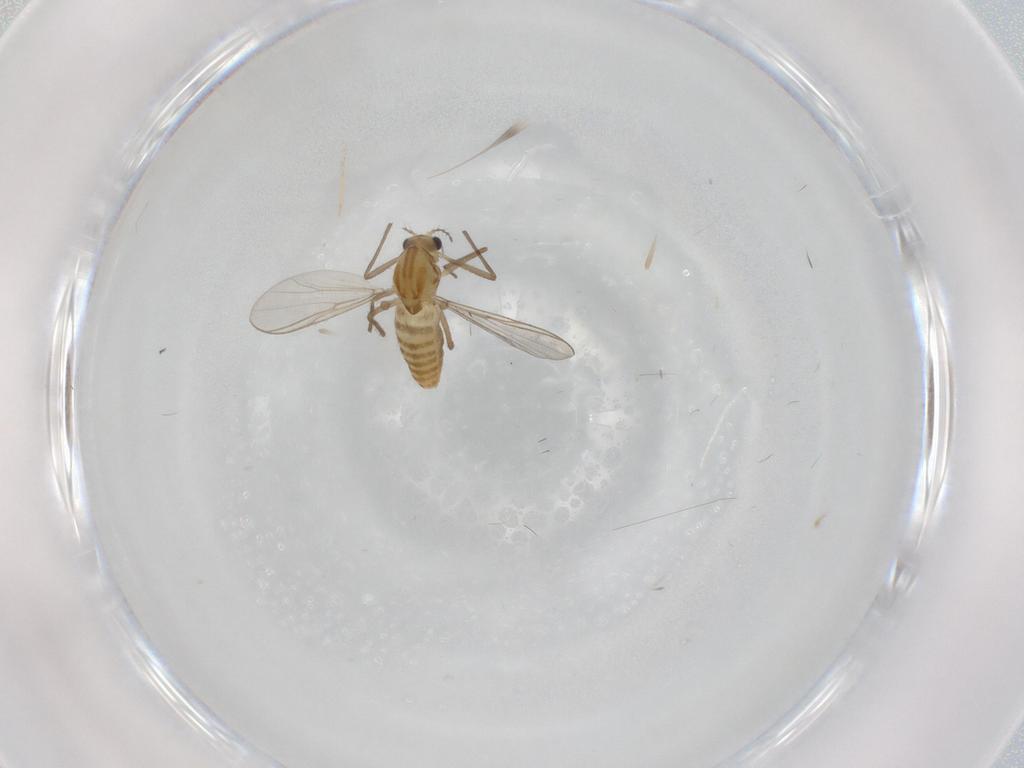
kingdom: Animalia
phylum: Arthropoda
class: Insecta
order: Diptera
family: Chironomidae
